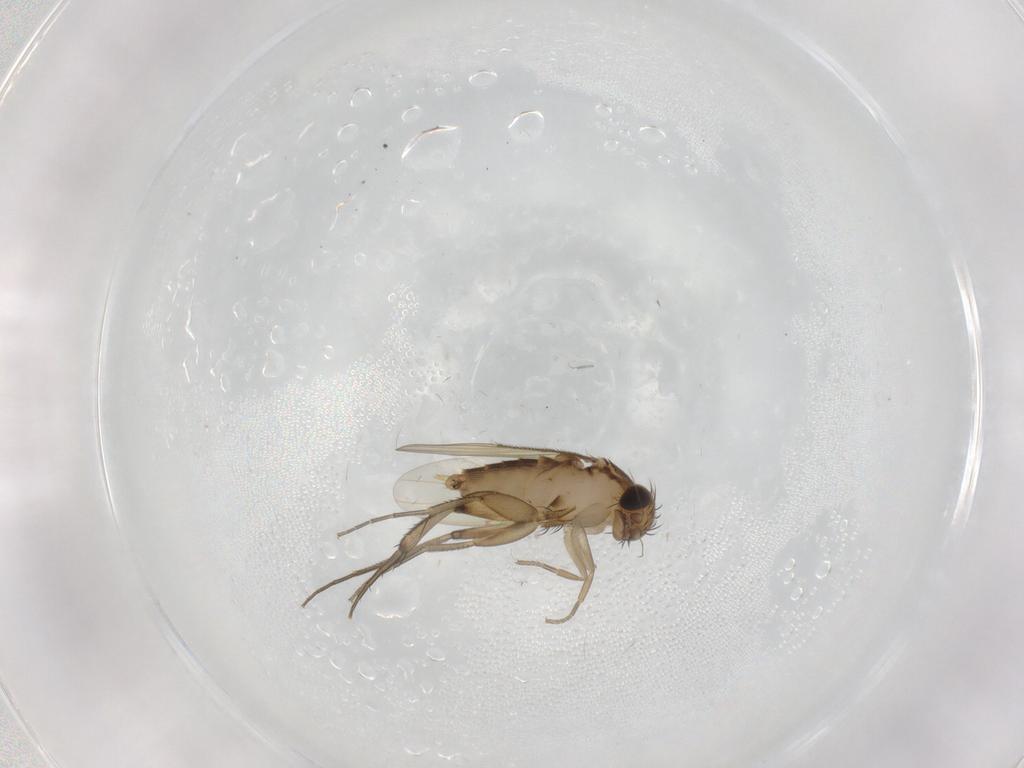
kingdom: Animalia
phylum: Arthropoda
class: Insecta
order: Diptera
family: Phoridae
